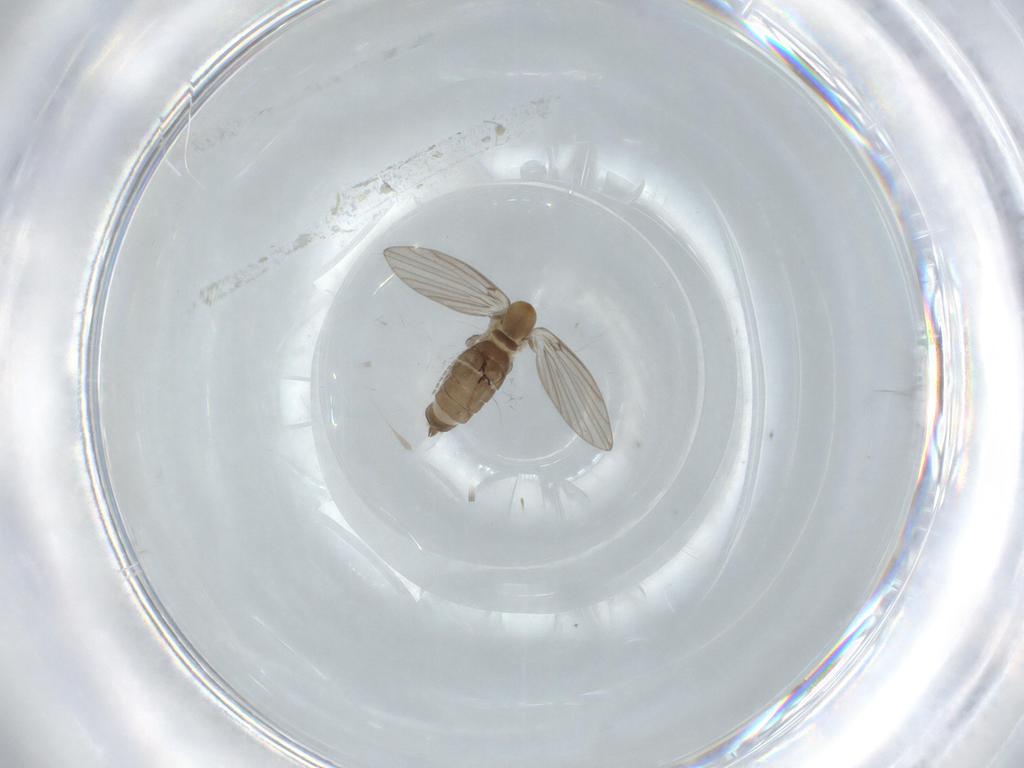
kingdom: Animalia
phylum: Arthropoda
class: Insecta
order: Diptera
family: Psychodidae
